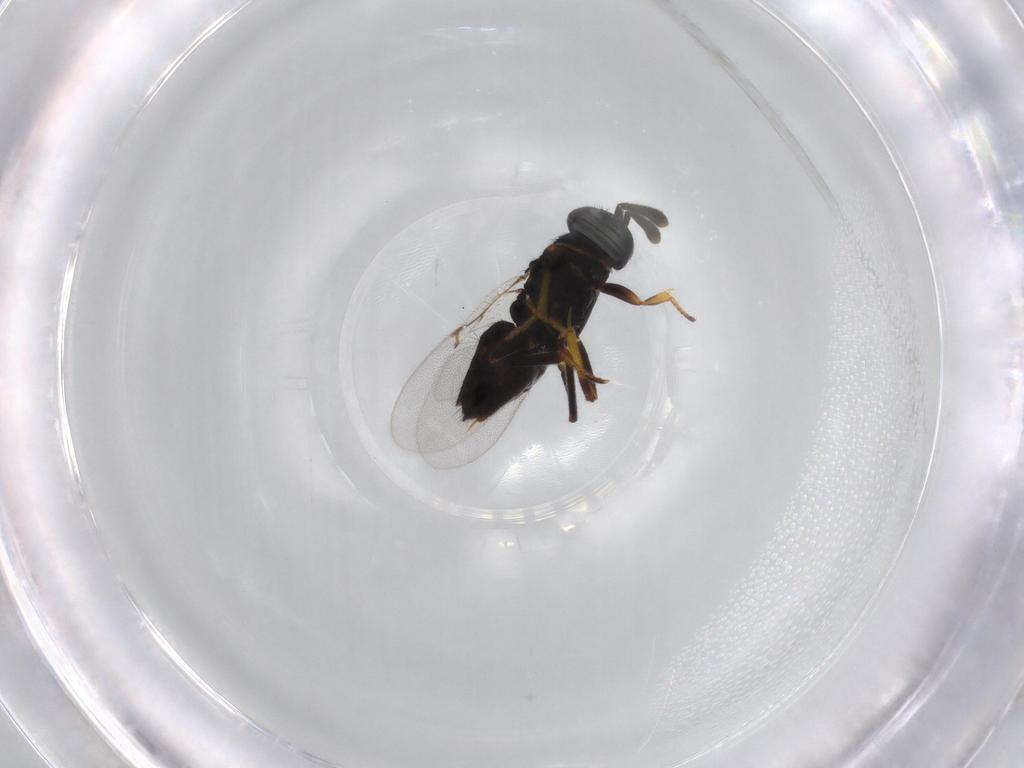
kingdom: Animalia
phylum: Arthropoda
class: Insecta
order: Hymenoptera
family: Encyrtidae
